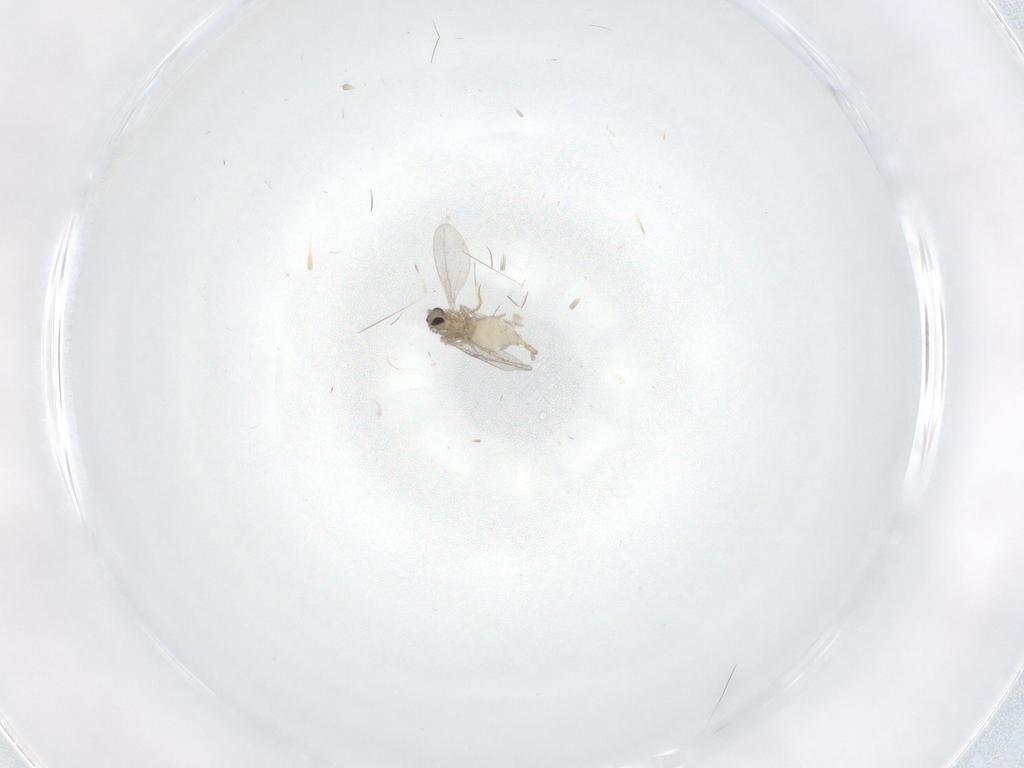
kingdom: Animalia
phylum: Arthropoda
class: Insecta
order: Diptera
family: Cecidomyiidae
